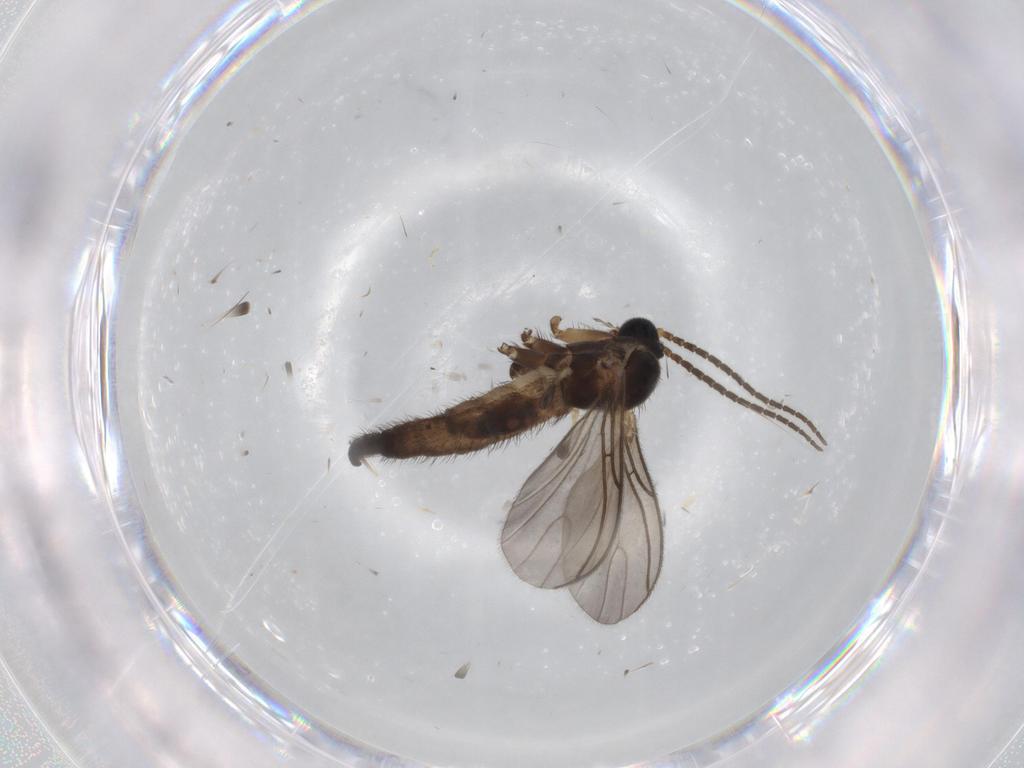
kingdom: Animalia
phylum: Arthropoda
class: Insecta
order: Diptera
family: Sciaridae
